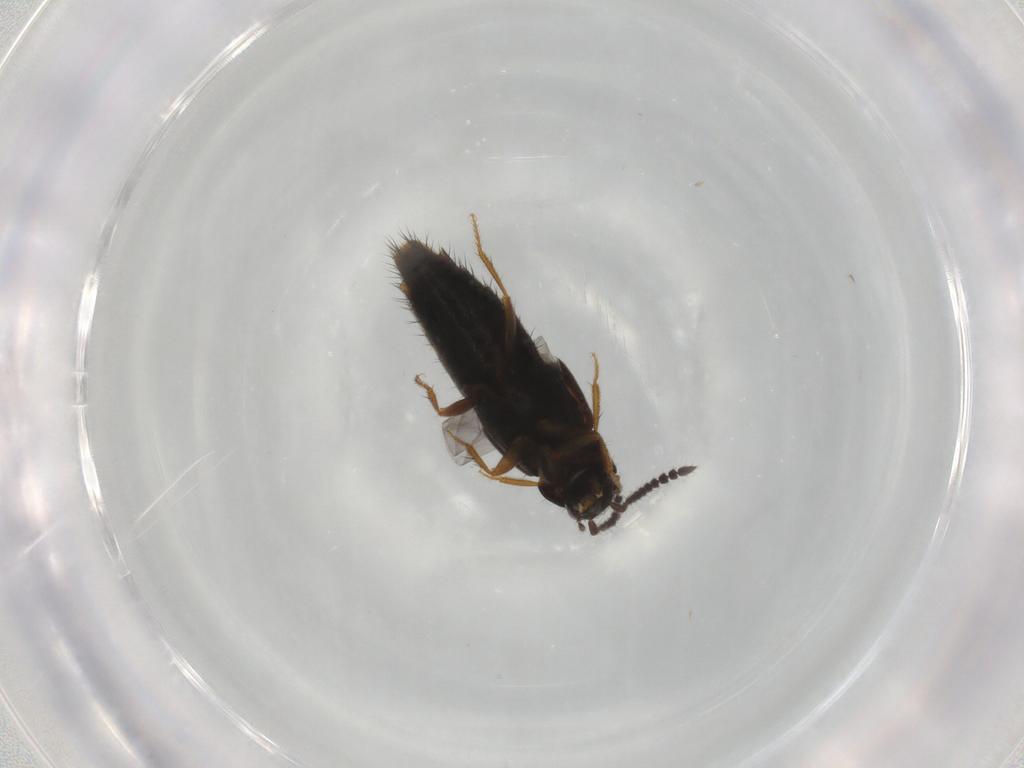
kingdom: Animalia
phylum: Arthropoda
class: Insecta
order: Coleoptera
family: Staphylinidae
